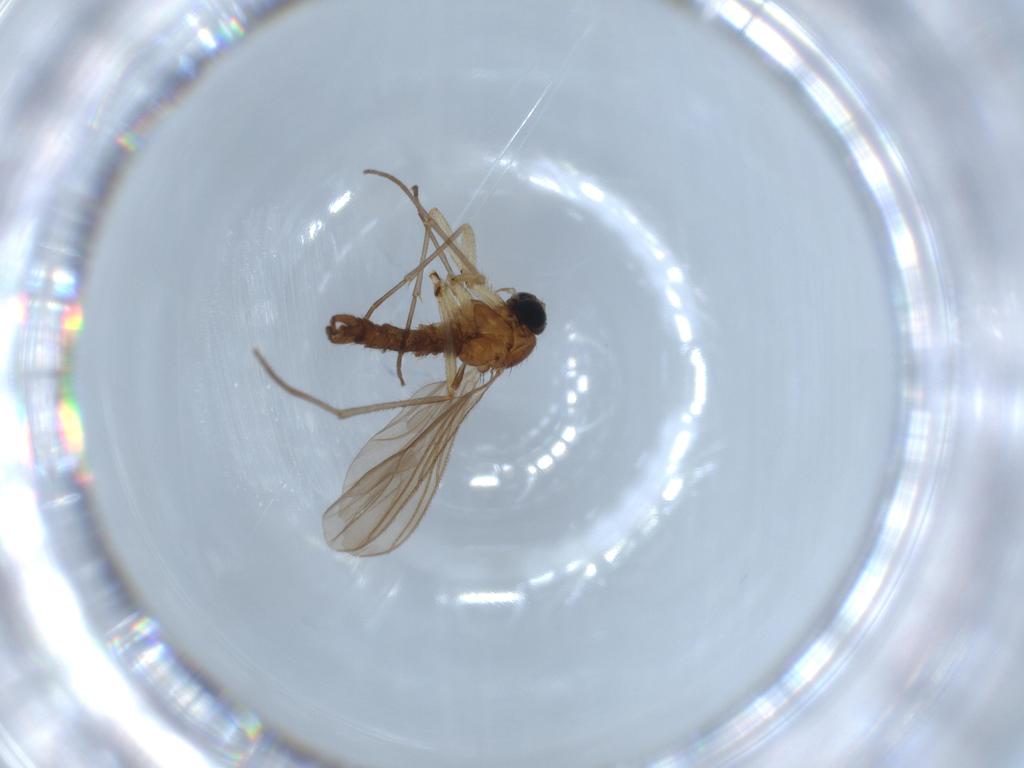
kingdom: Animalia
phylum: Arthropoda
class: Insecta
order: Diptera
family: Sciaridae
